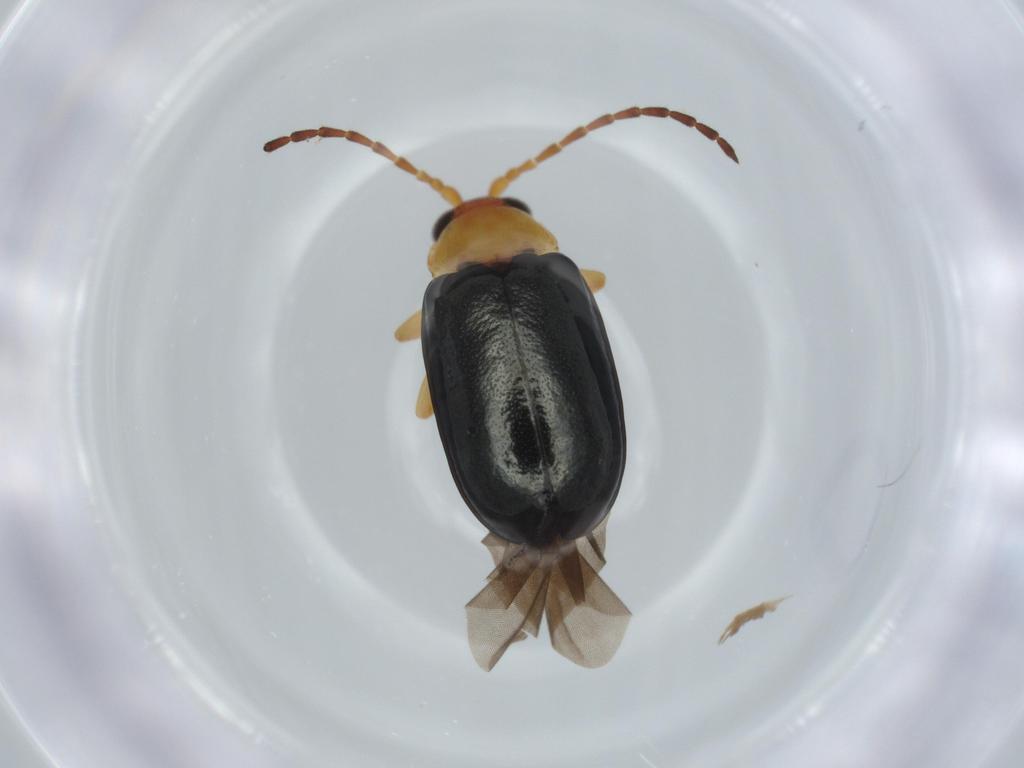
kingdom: Animalia
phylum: Arthropoda
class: Insecta
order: Coleoptera
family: Chrysomelidae
